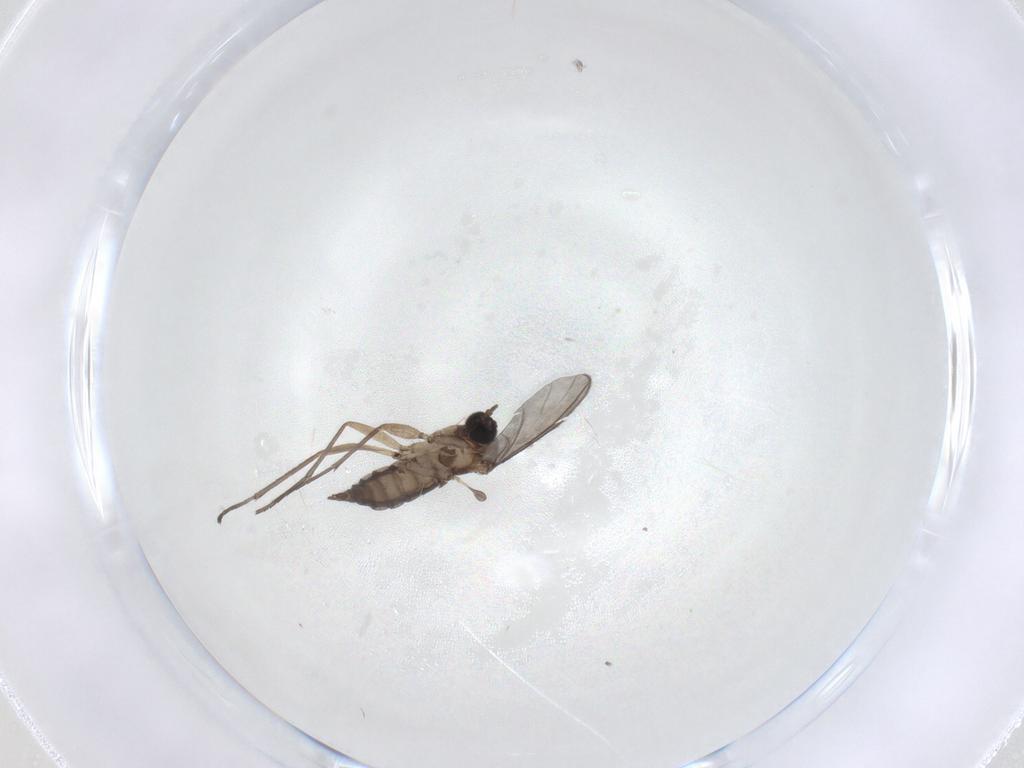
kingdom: Animalia
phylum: Arthropoda
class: Insecta
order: Diptera
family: Sciaridae
